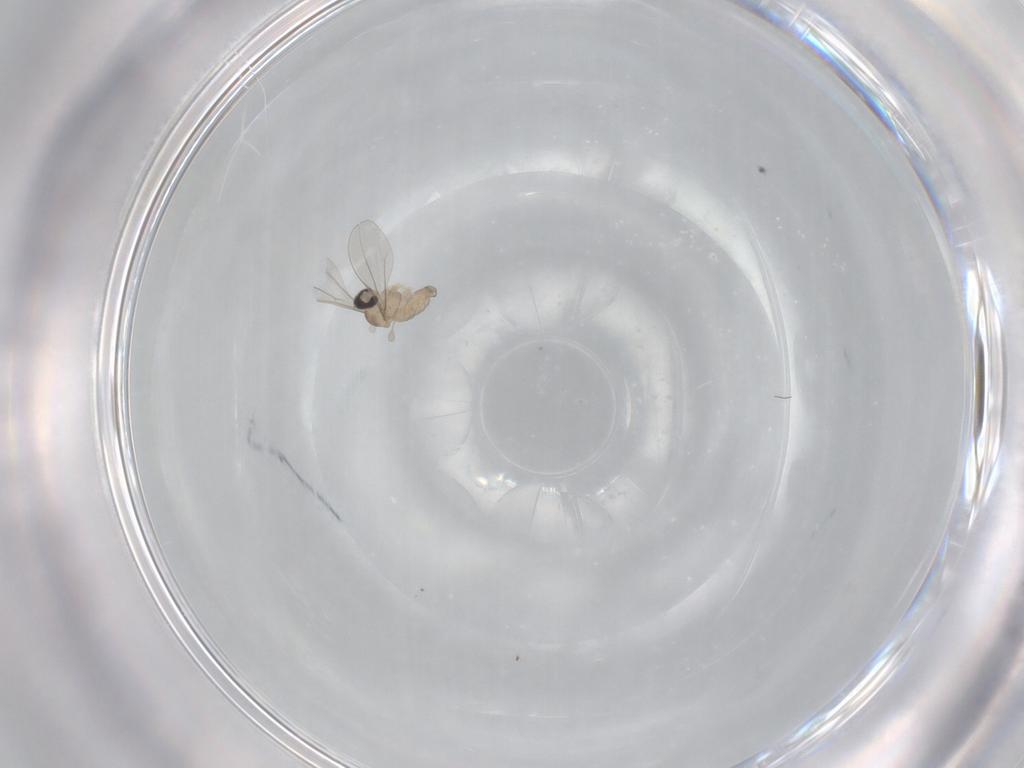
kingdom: Animalia
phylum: Arthropoda
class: Insecta
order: Diptera
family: Cecidomyiidae
